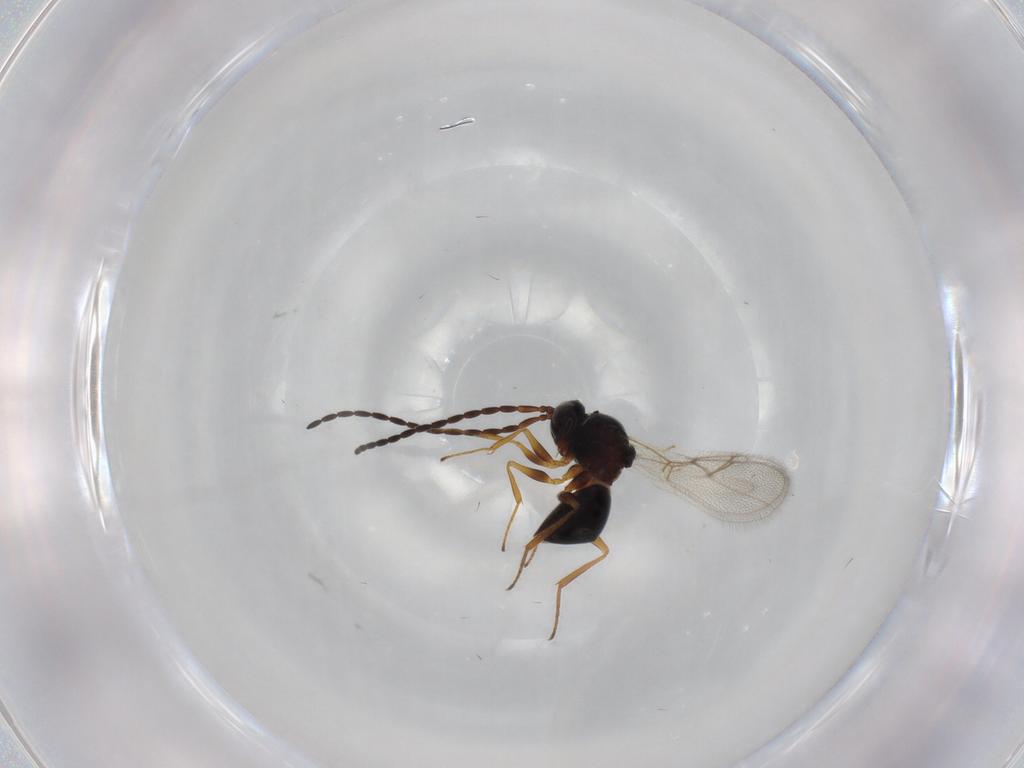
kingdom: Animalia
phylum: Arthropoda
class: Insecta
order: Hymenoptera
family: Figitidae
